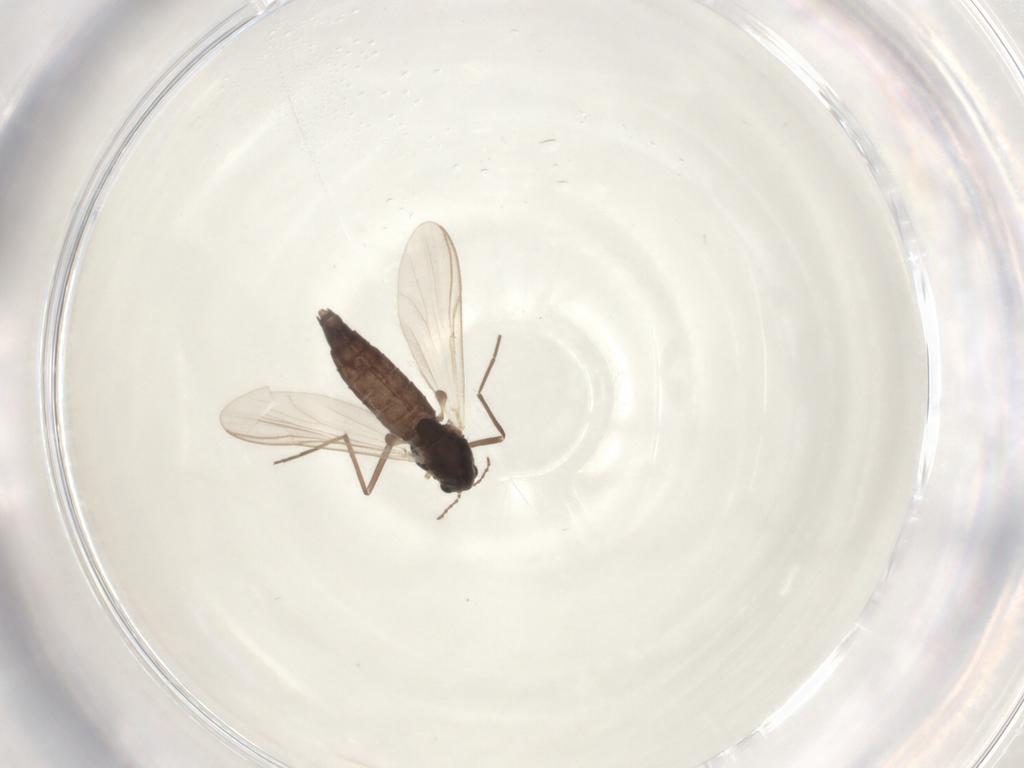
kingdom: Animalia
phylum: Arthropoda
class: Insecta
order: Diptera
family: Chironomidae
